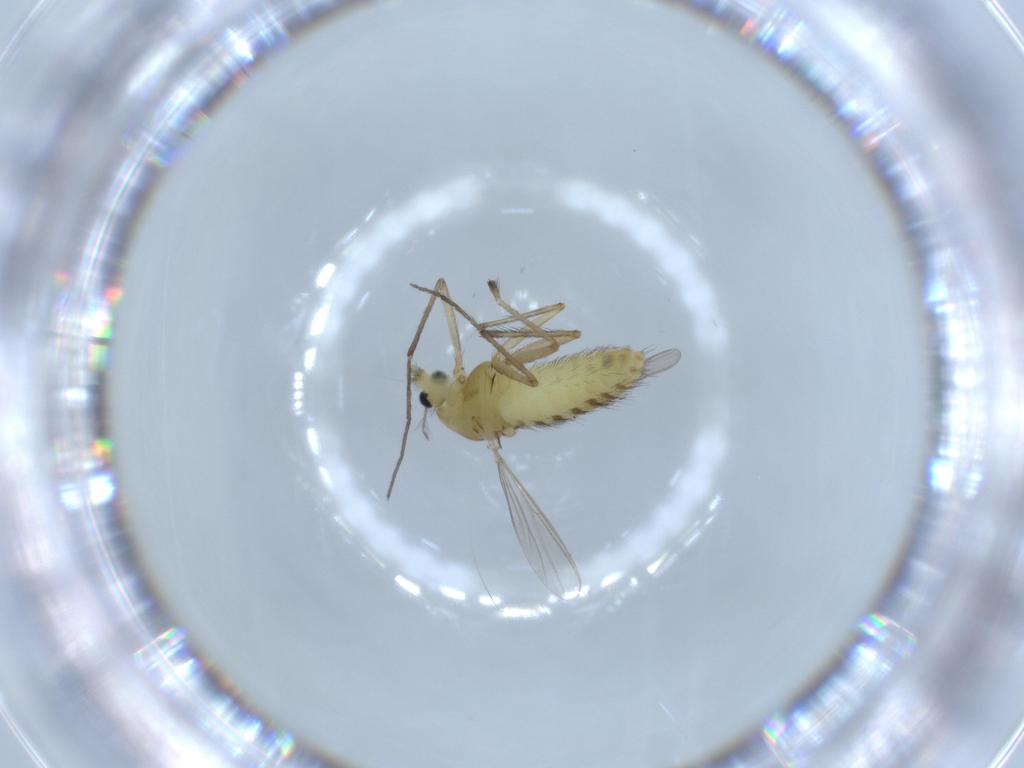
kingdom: Animalia
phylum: Arthropoda
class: Insecta
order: Diptera
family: Chironomidae
